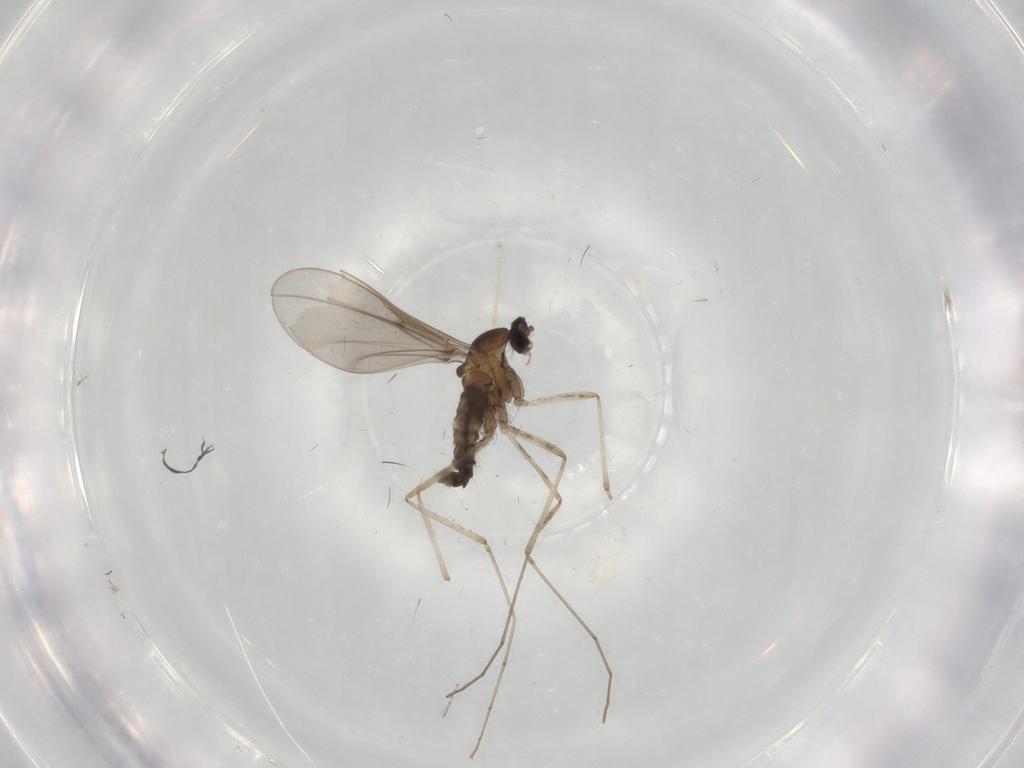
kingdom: Animalia
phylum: Arthropoda
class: Insecta
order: Diptera
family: Cecidomyiidae
